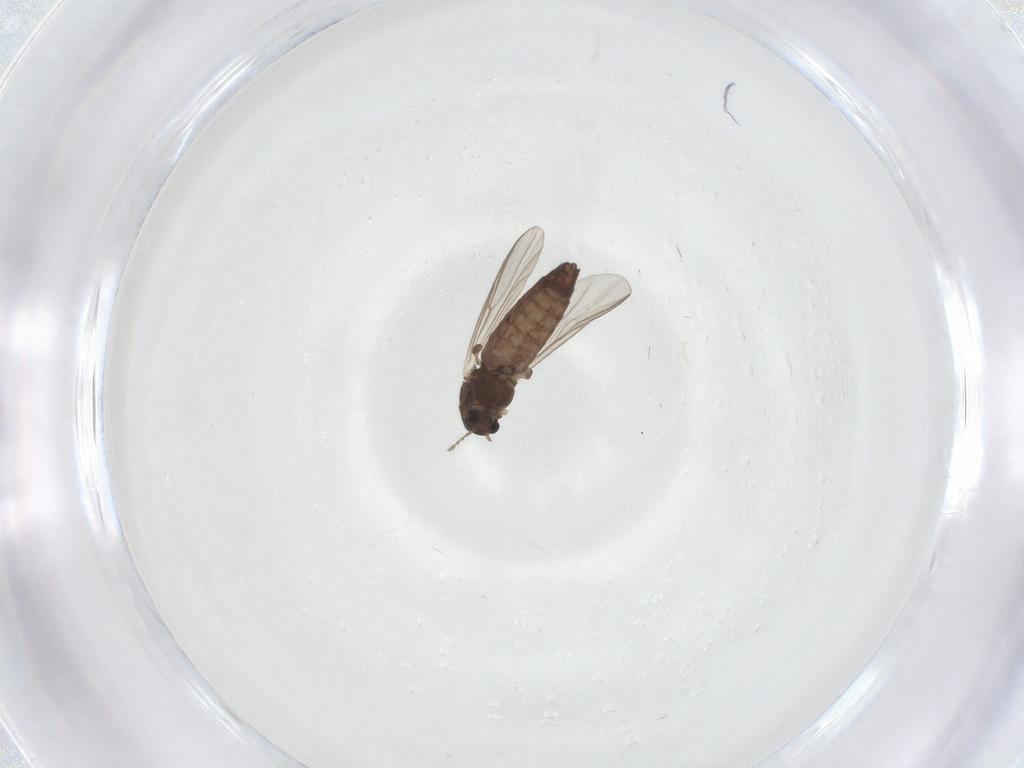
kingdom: Animalia
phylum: Arthropoda
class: Insecta
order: Diptera
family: Chironomidae
